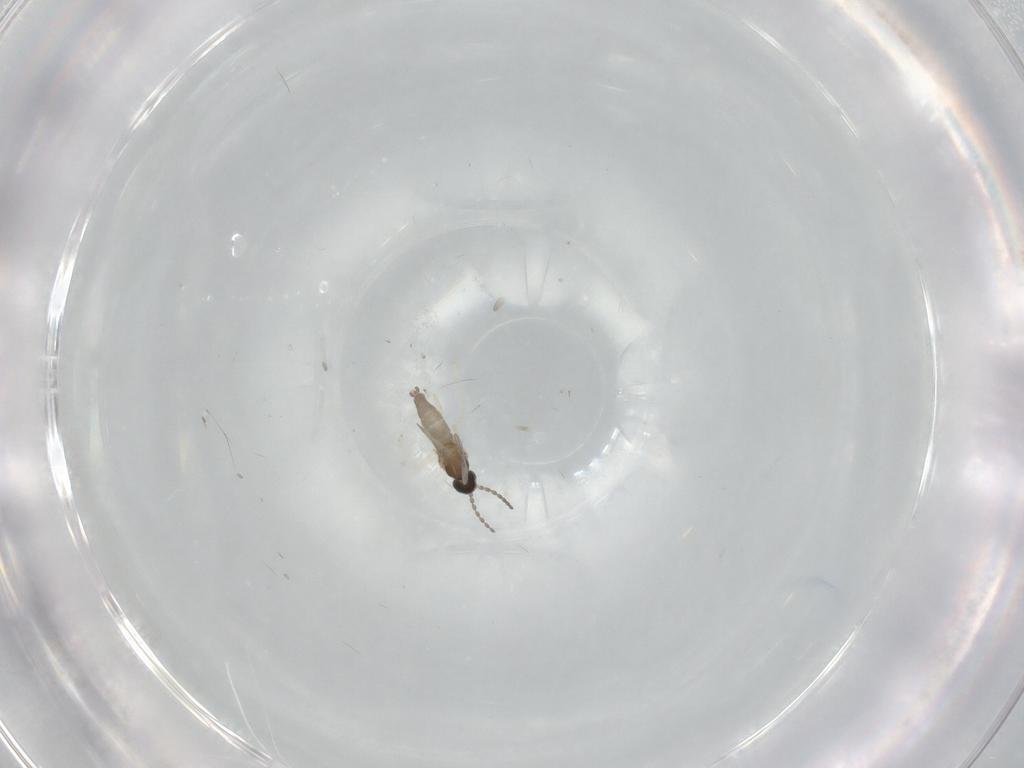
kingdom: Animalia
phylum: Arthropoda
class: Insecta
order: Diptera
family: Cecidomyiidae
